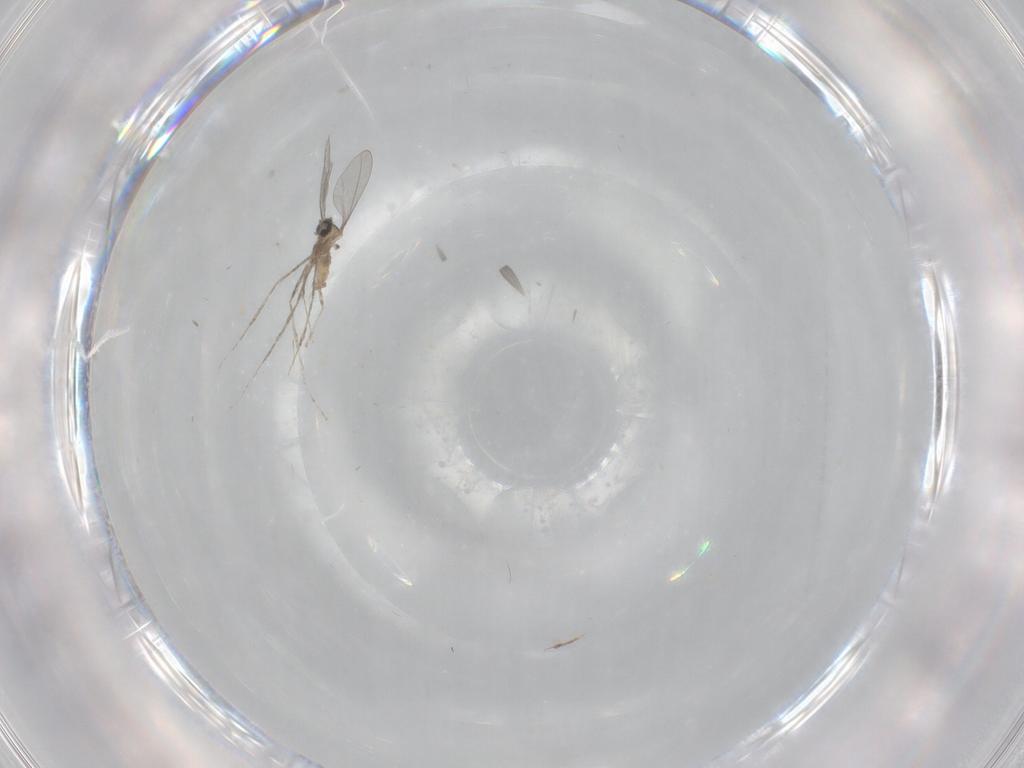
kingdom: Animalia
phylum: Arthropoda
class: Insecta
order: Diptera
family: Cecidomyiidae
